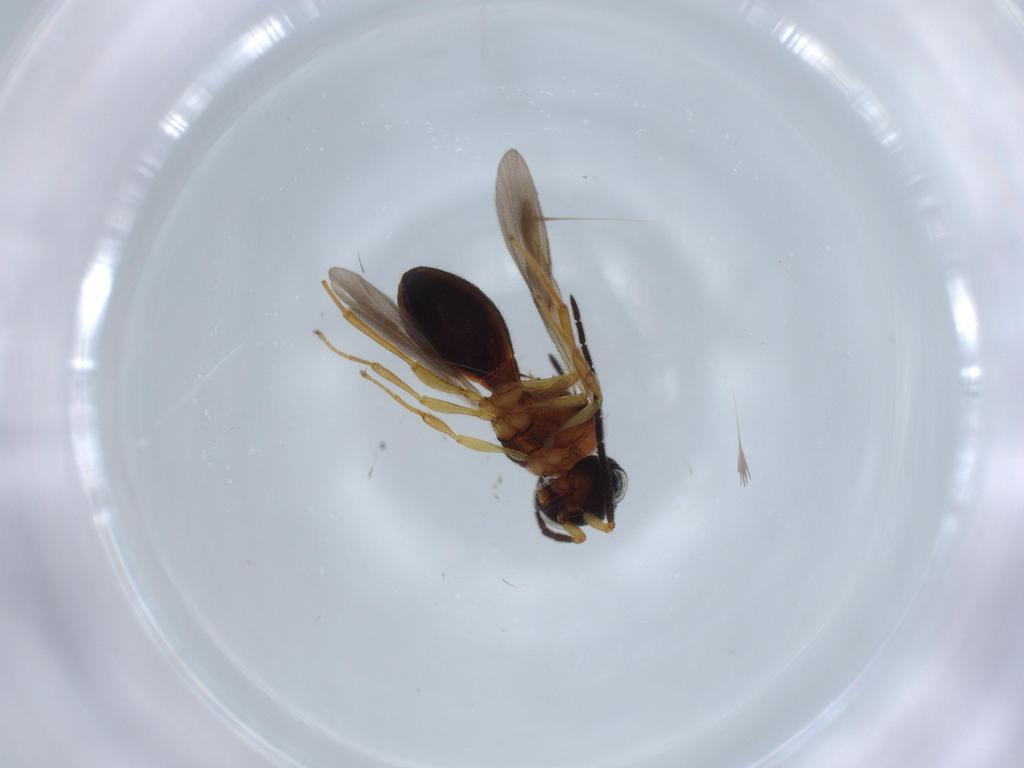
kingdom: Animalia
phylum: Arthropoda
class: Insecta
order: Hymenoptera
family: Scelionidae
